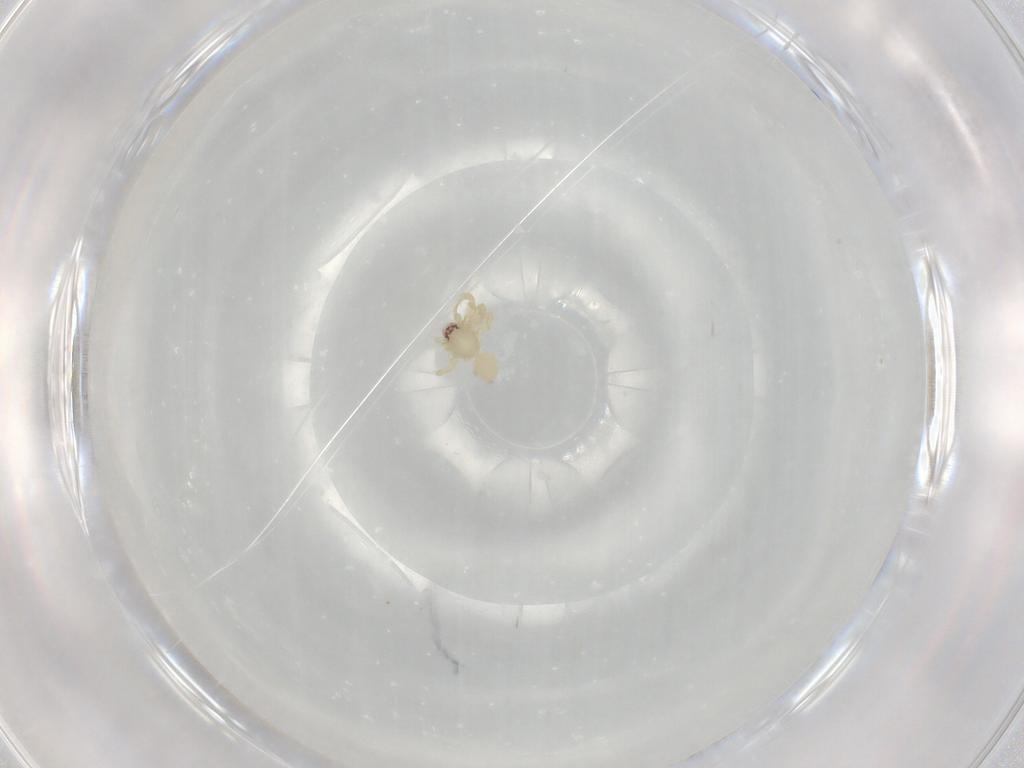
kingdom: Animalia
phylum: Arthropoda
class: Arachnida
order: Araneae
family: Oonopidae
